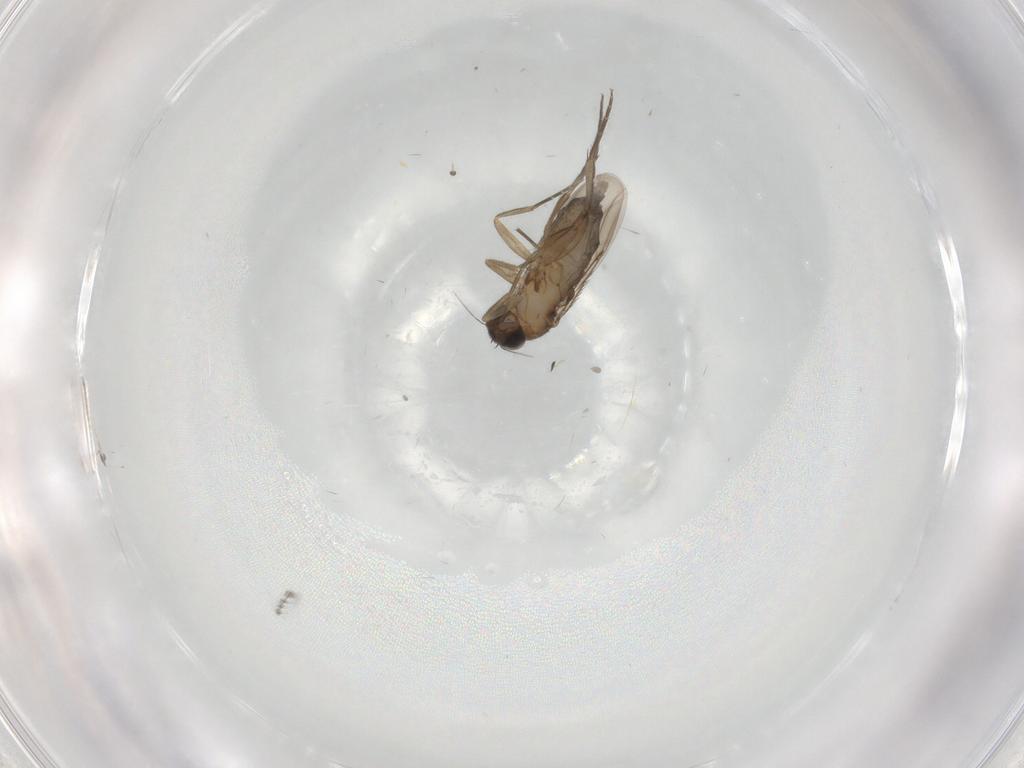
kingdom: Animalia
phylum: Arthropoda
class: Insecta
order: Diptera
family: Phoridae
